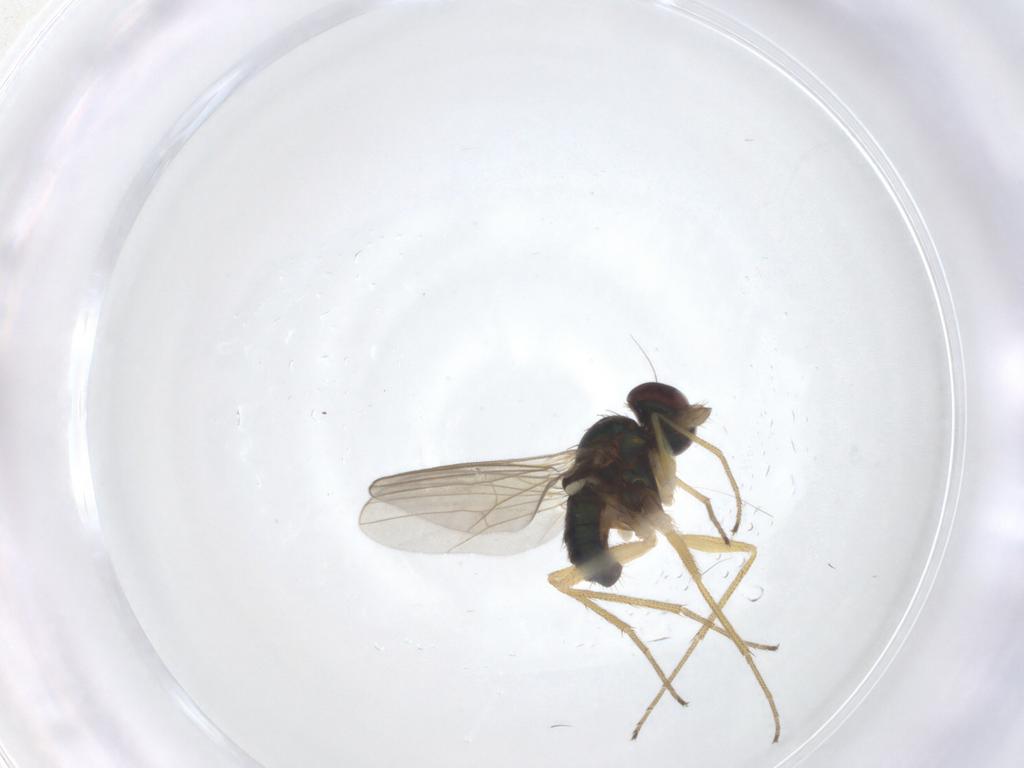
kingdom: Animalia
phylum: Arthropoda
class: Insecta
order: Diptera
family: Dolichopodidae
